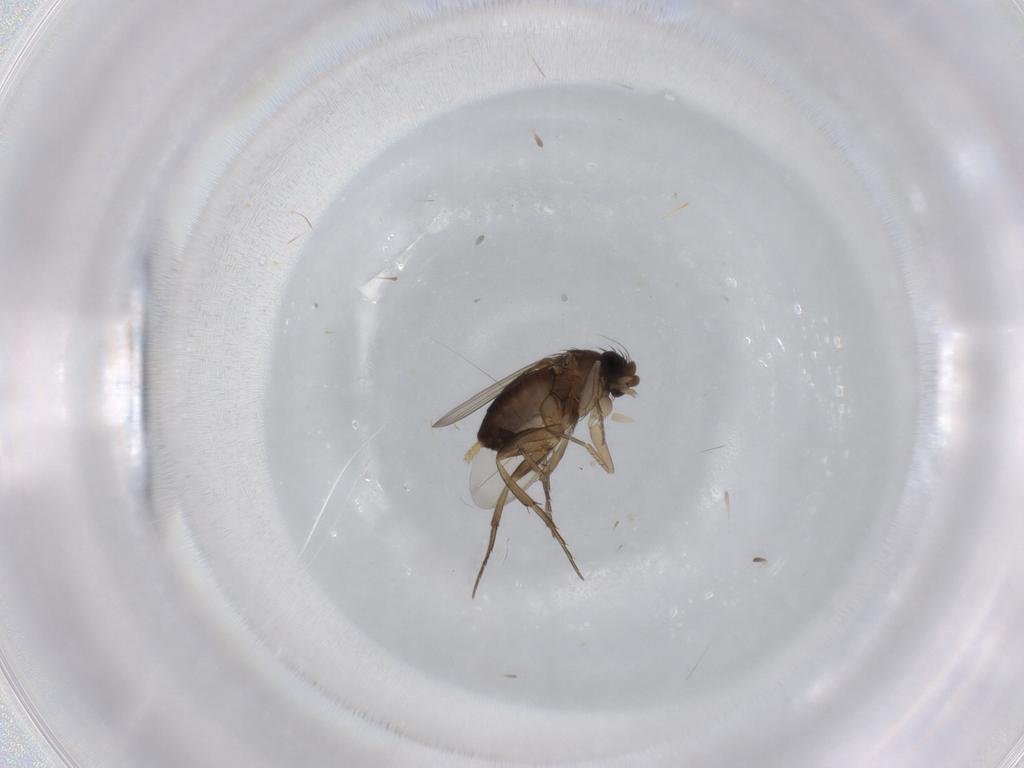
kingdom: Animalia
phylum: Arthropoda
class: Insecta
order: Diptera
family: Phoridae
